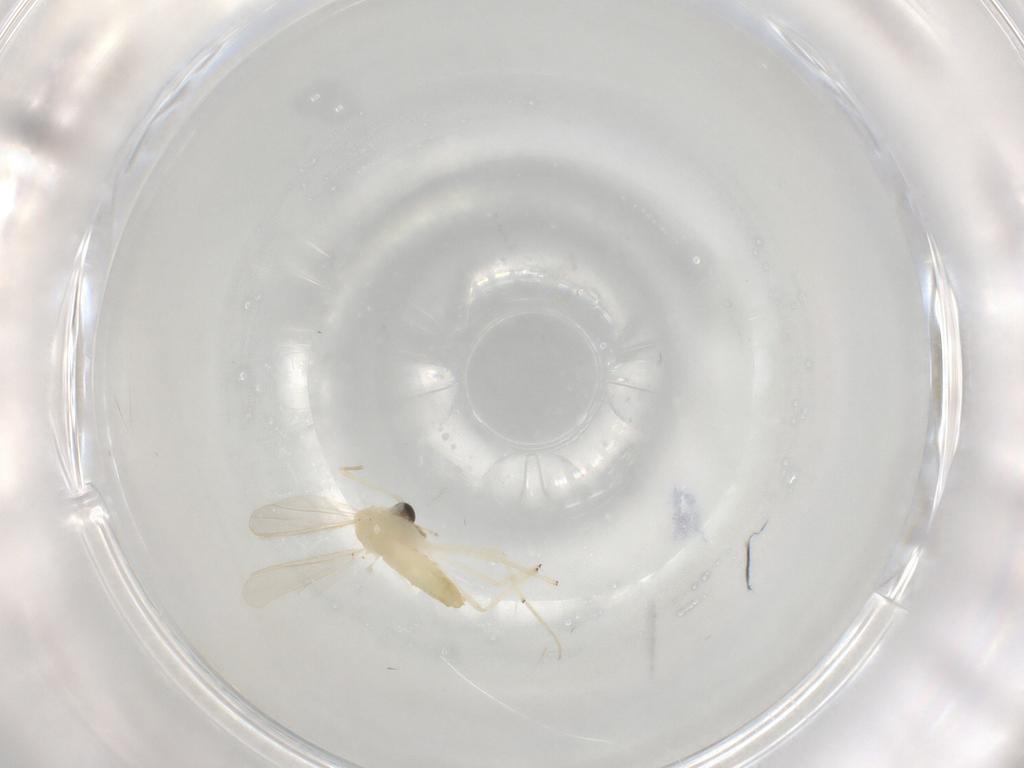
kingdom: Animalia
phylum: Arthropoda
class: Insecta
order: Diptera
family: Chironomidae
